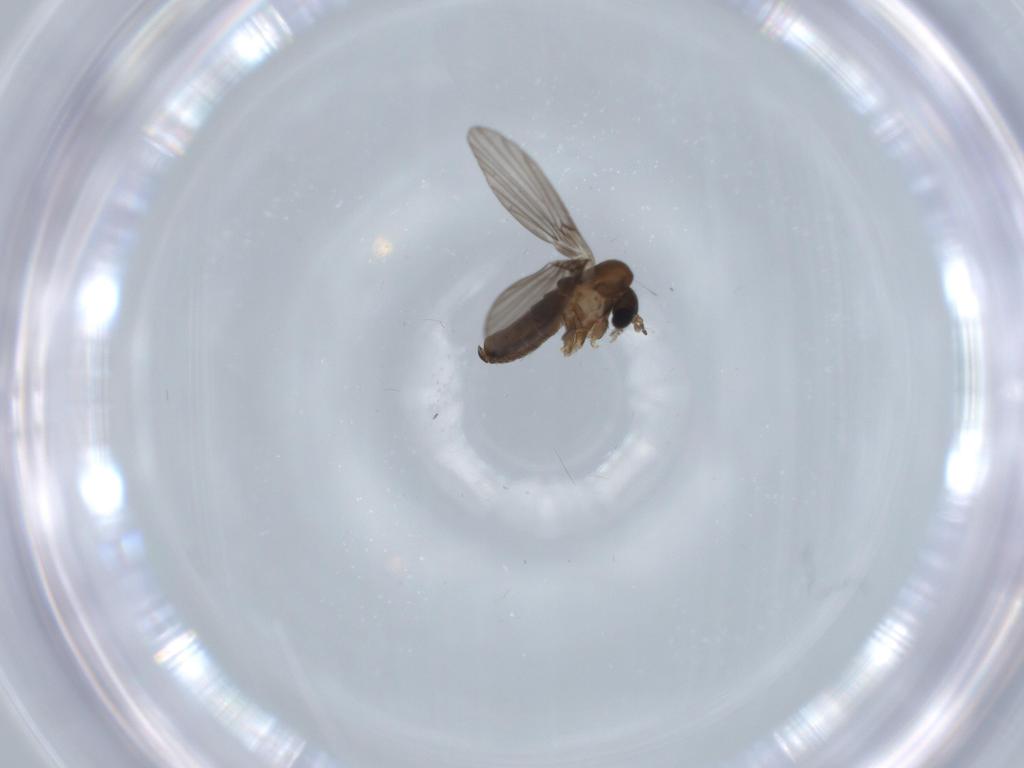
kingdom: Animalia
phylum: Arthropoda
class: Insecta
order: Diptera
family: Psychodidae
